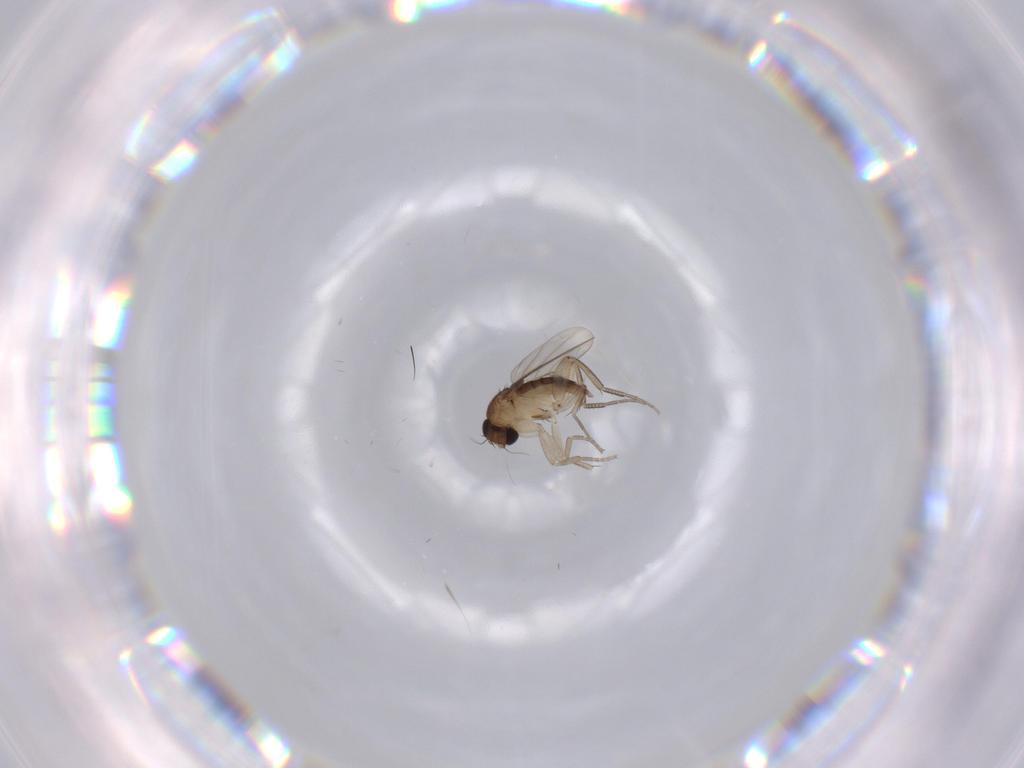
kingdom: Animalia
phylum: Arthropoda
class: Insecta
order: Diptera
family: Phoridae
